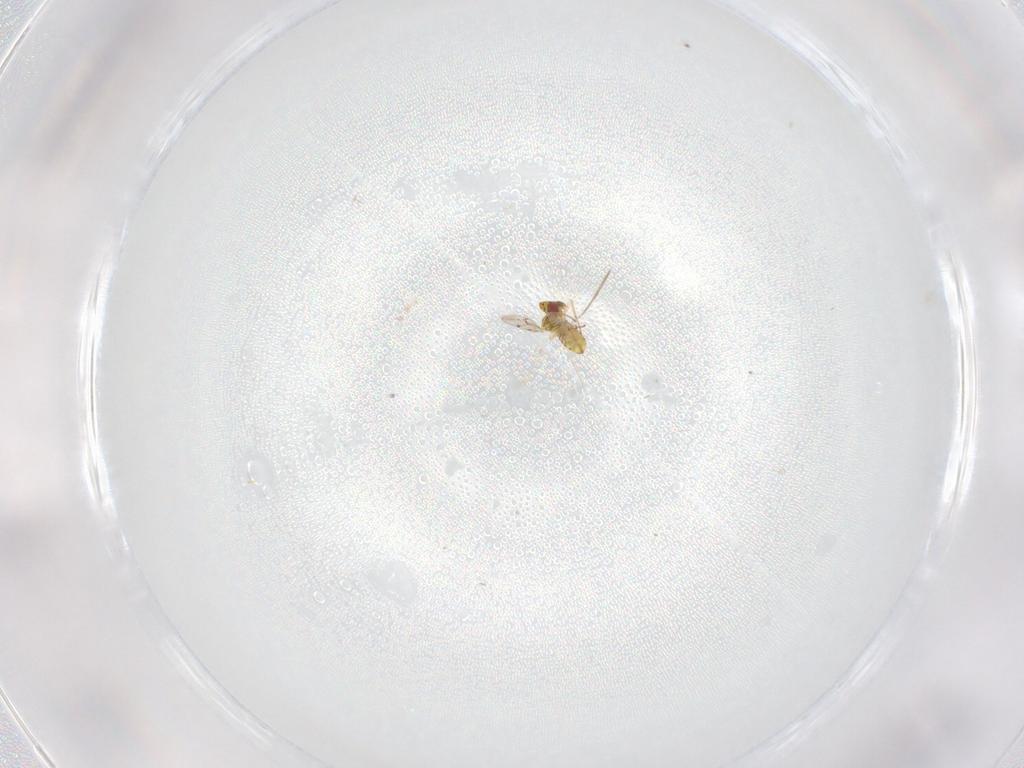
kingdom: Animalia
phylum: Arthropoda
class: Insecta
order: Hymenoptera
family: Eulophidae
